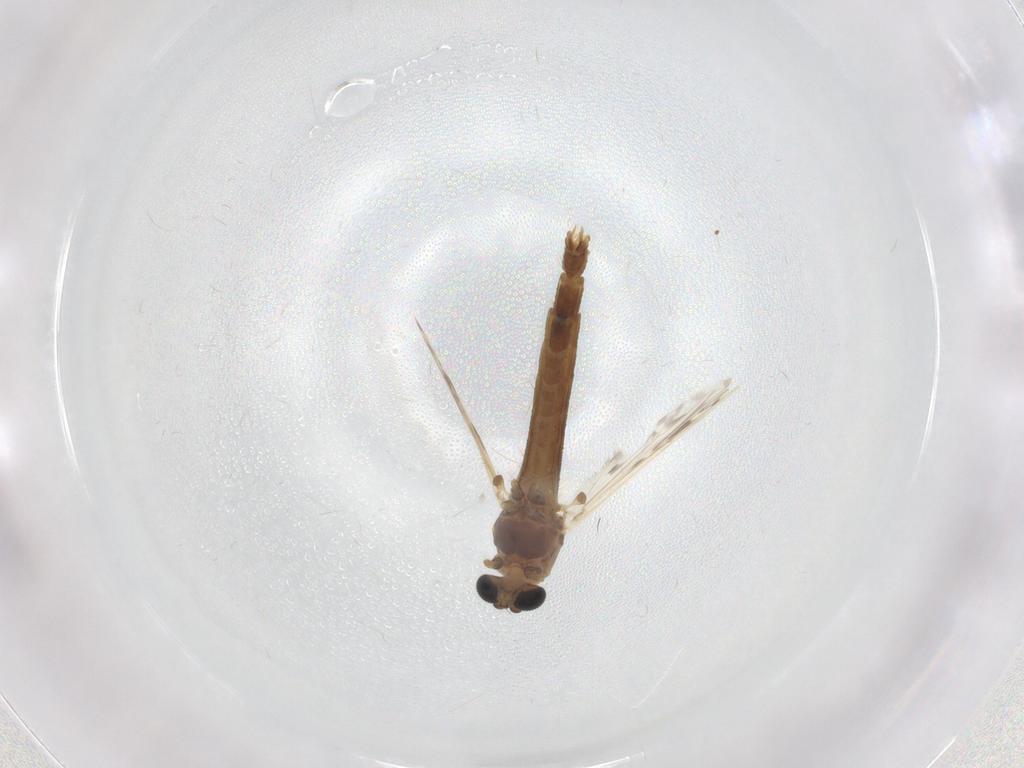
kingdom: Animalia
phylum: Arthropoda
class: Insecta
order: Diptera
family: Chironomidae
